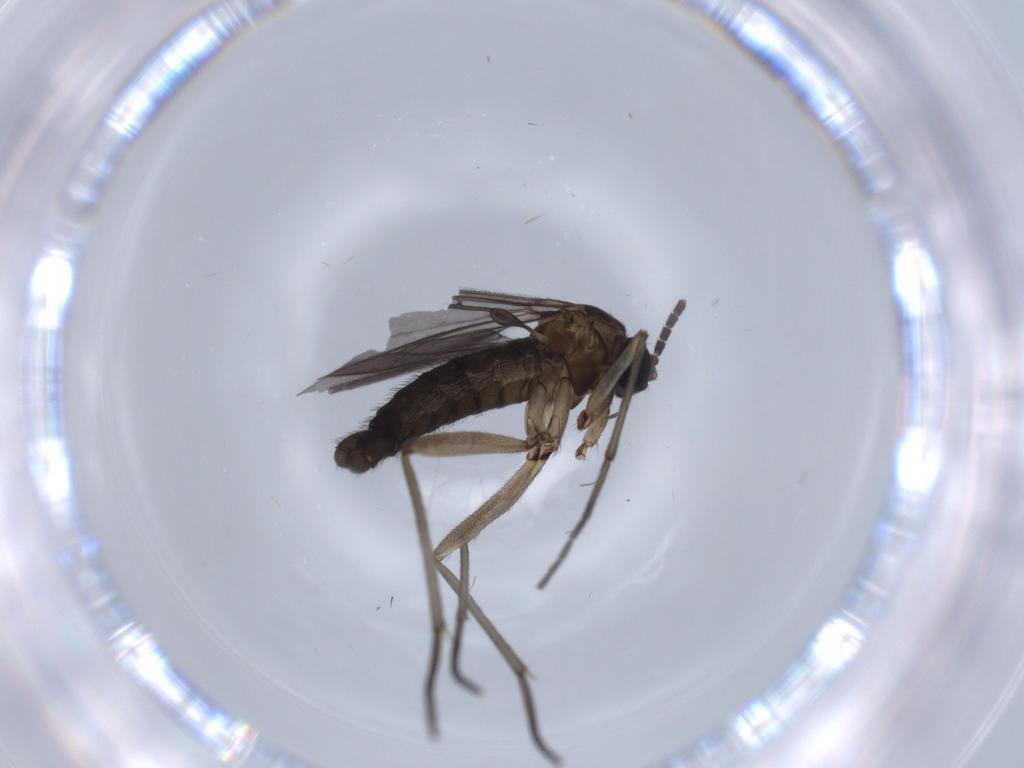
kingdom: Animalia
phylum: Arthropoda
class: Insecta
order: Diptera
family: Sciaridae
